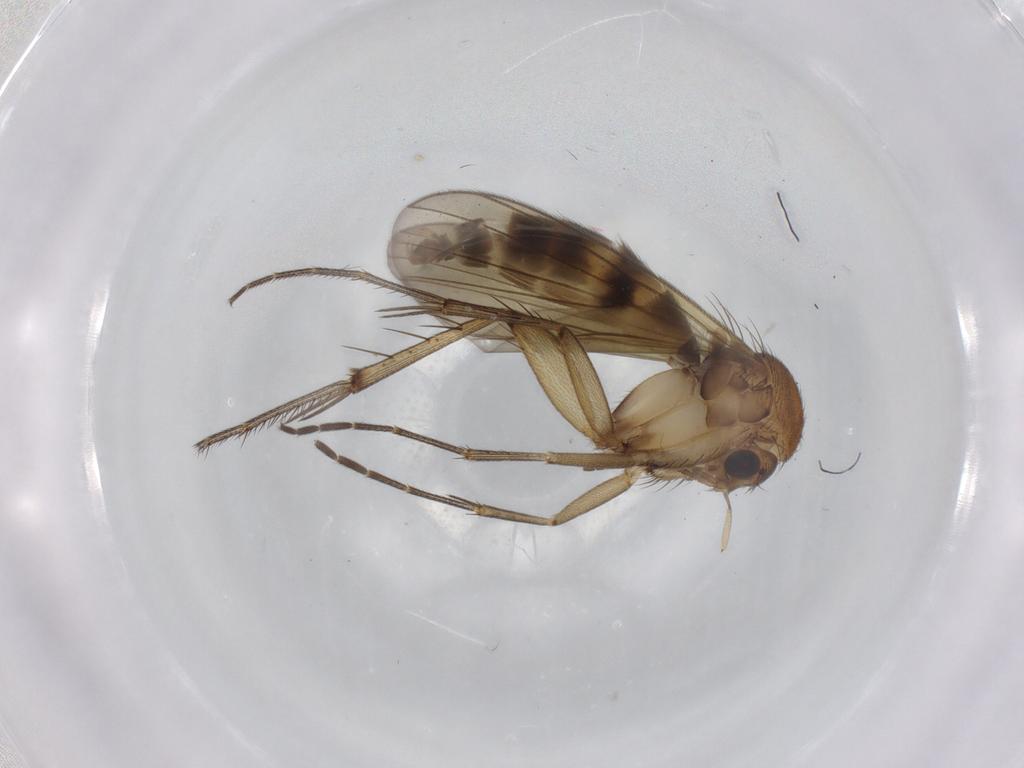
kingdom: Animalia
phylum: Arthropoda
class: Insecta
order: Diptera
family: Mycetophilidae
